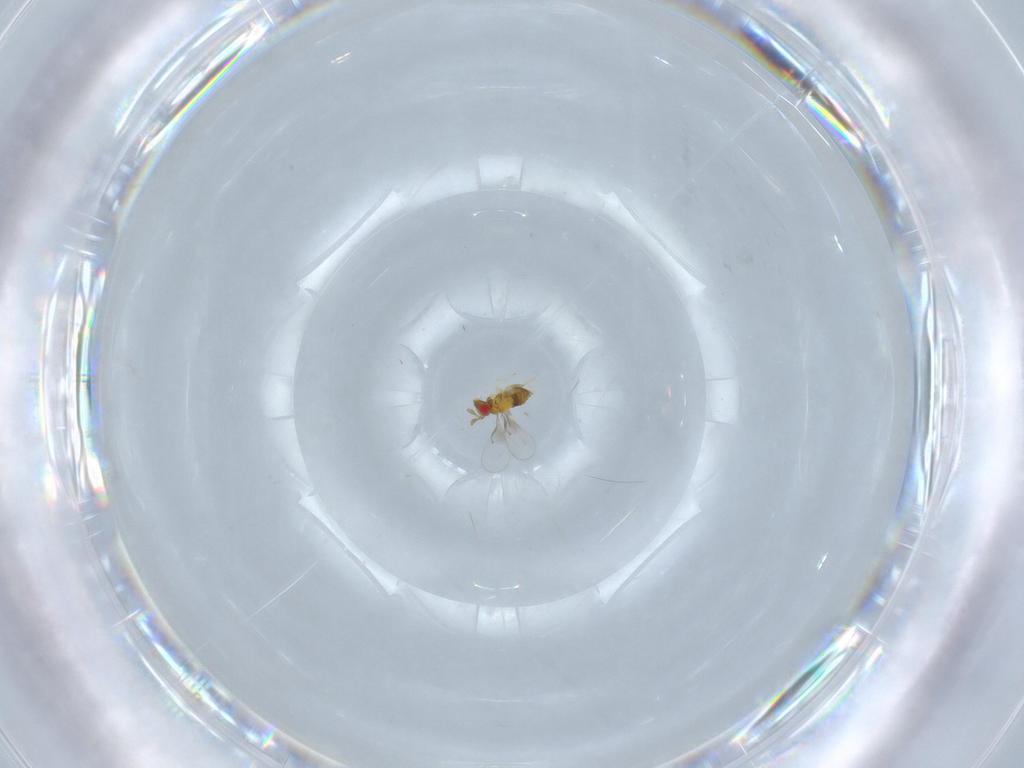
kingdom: Animalia
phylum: Arthropoda
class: Insecta
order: Hymenoptera
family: Trichogrammatidae
